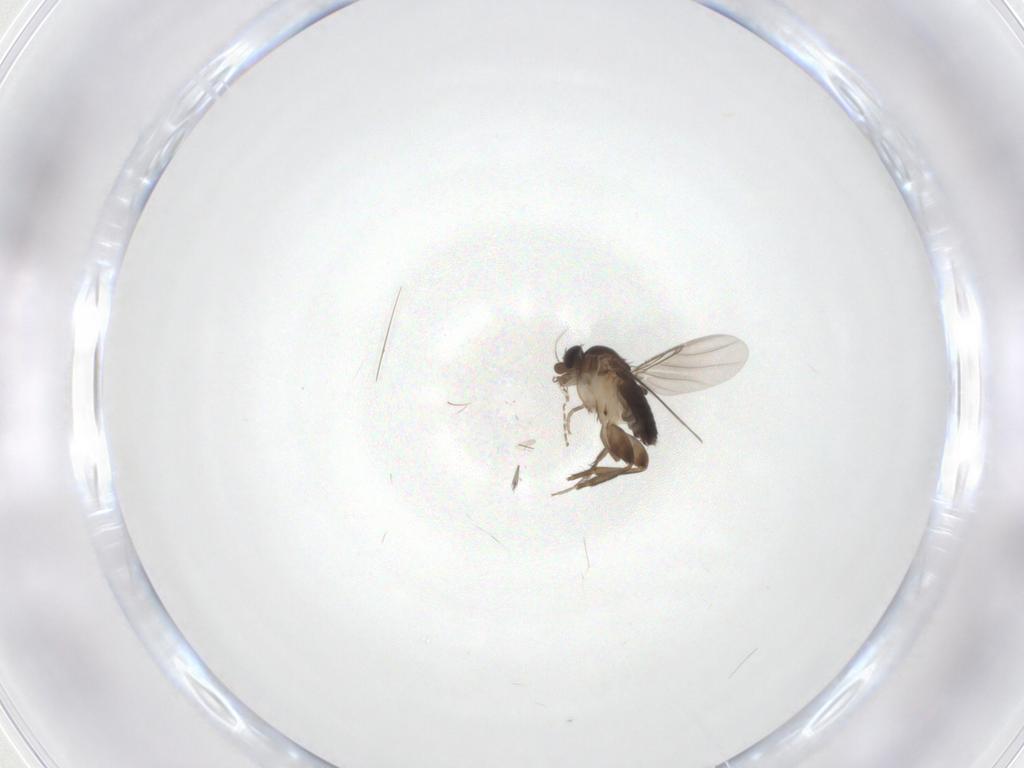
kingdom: Animalia
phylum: Arthropoda
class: Insecta
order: Diptera
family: Phoridae
